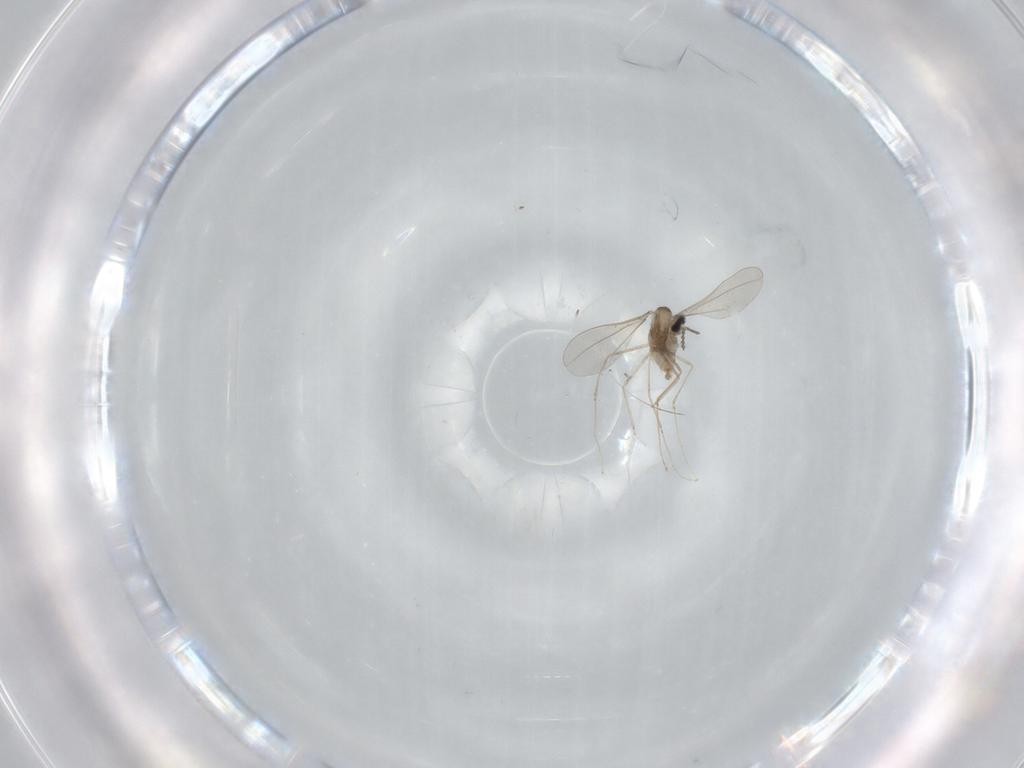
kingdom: Animalia
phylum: Arthropoda
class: Insecta
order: Diptera
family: Cecidomyiidae
